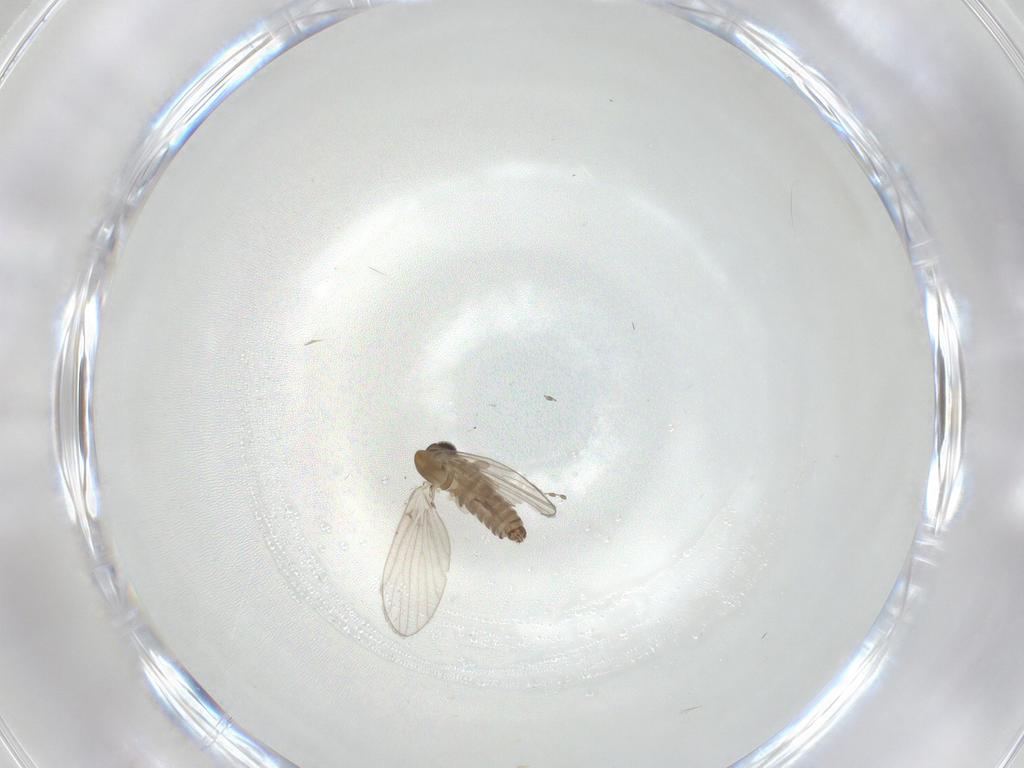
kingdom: Animalia
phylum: Arthropoda
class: Insecta
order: Diptera
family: Psychodidae
